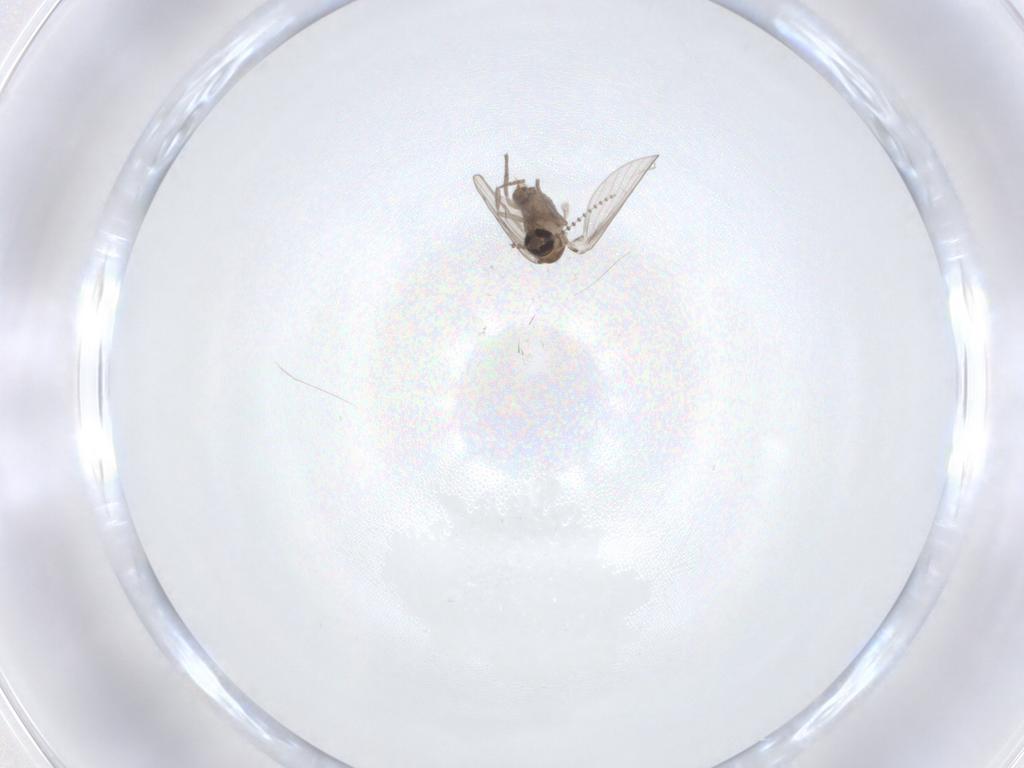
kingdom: Animalia
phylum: Arthropoda
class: Insecta
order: Diptera
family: Psychodidae
